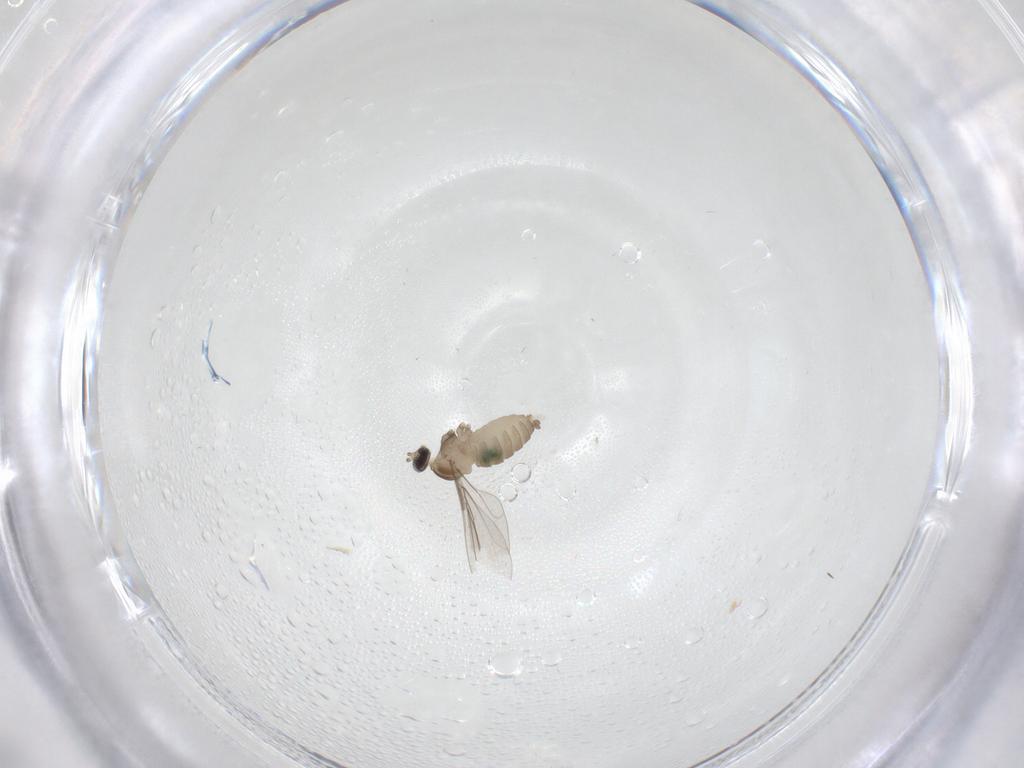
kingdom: Animalia
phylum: Arthropoda
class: Insecta
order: Diptera
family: Cecidomyiidae
